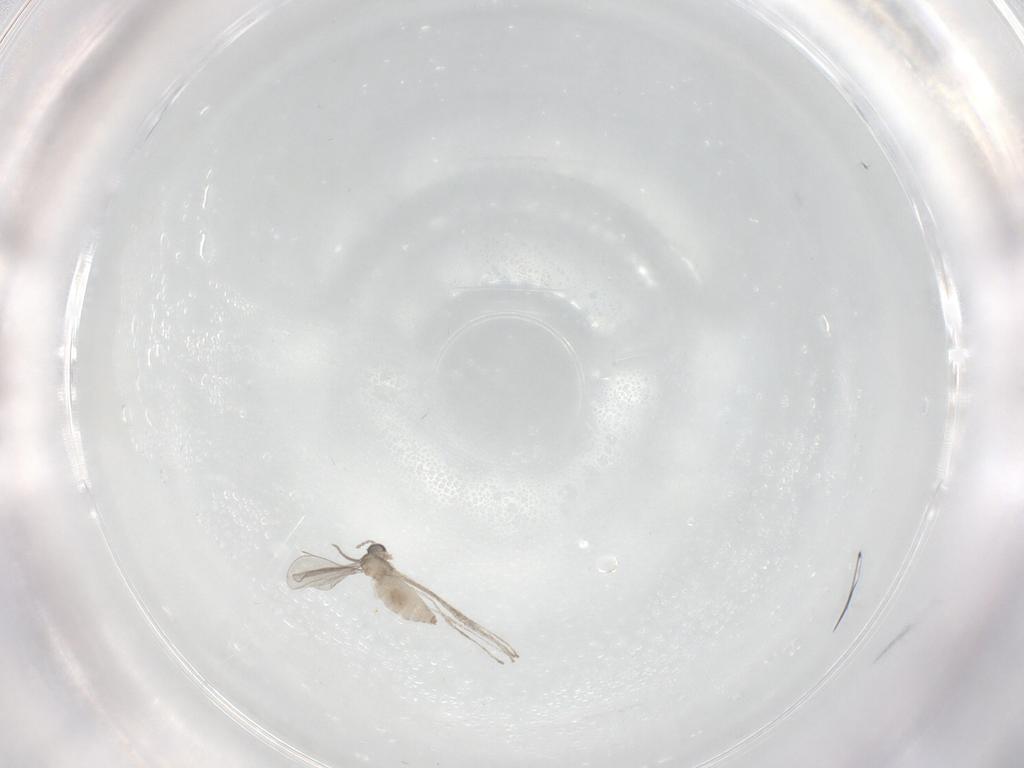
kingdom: Animalia
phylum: Arthropoda
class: Insecta
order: Diptera
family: Cecidomyiidae
